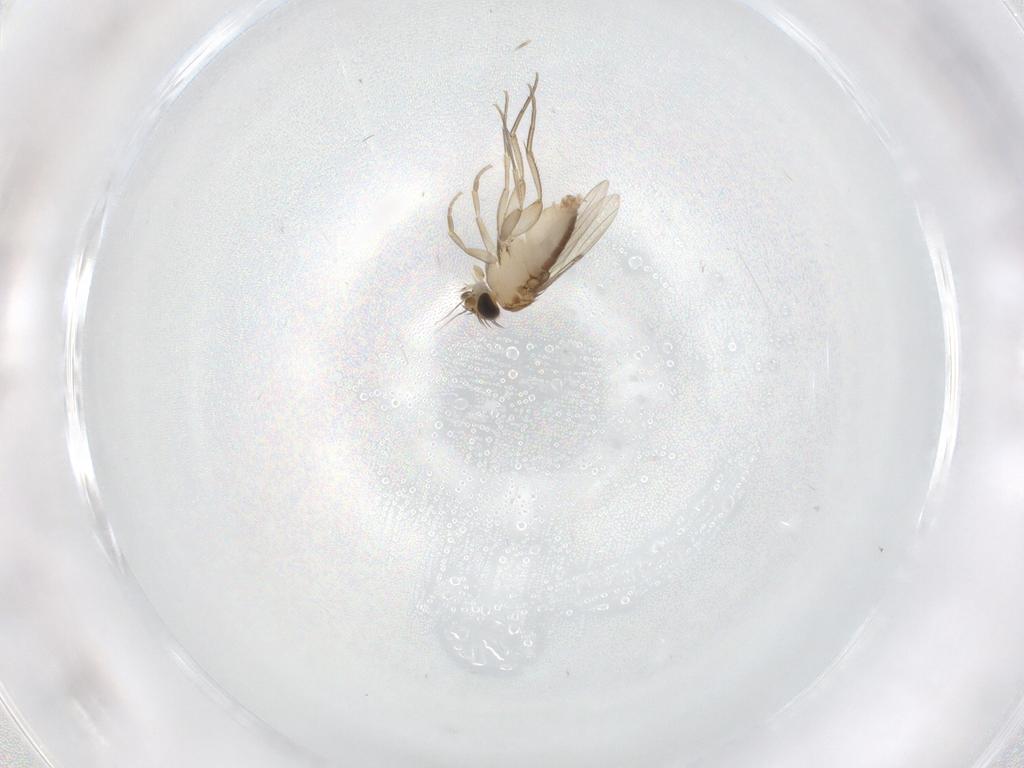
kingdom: Animalia
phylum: Arthropoda
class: Insecta
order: Diptera
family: Phoridae
